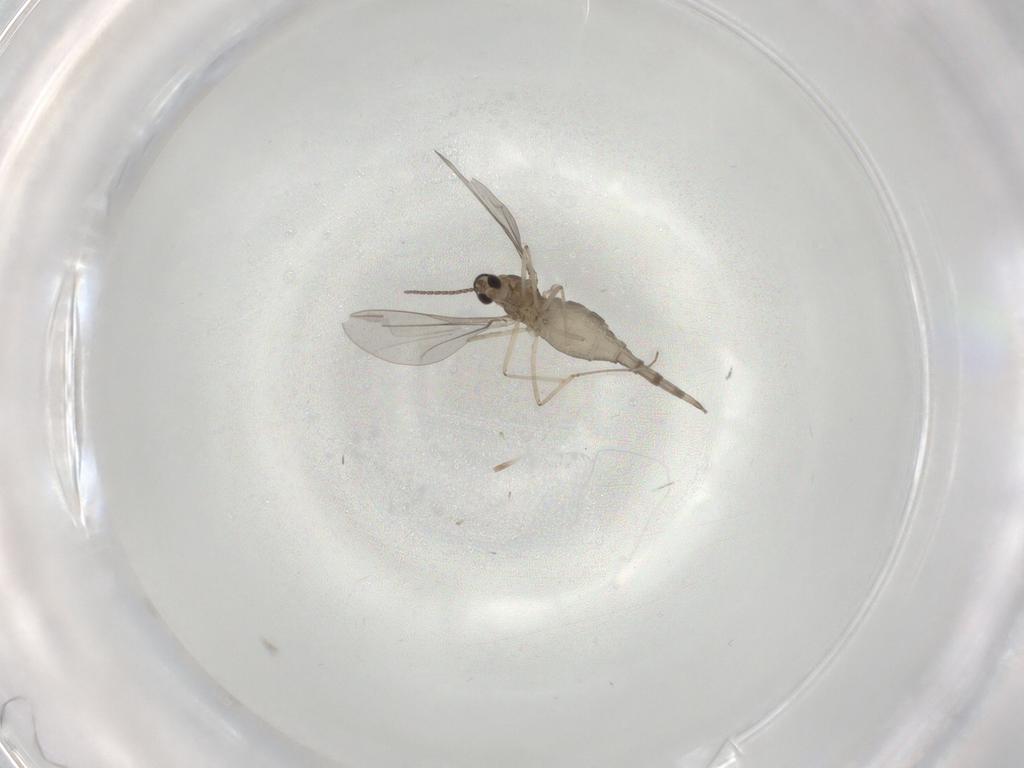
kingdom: Animalia
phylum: Arthropoda
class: Insecta
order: Diptera
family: Cecidomyiidae
